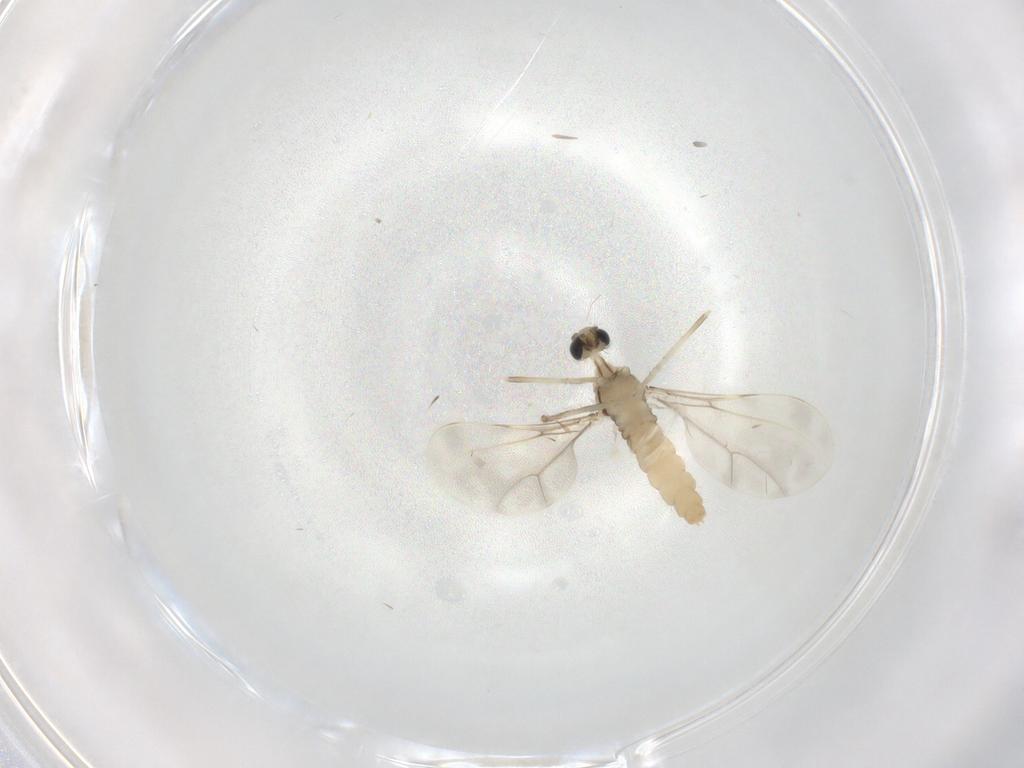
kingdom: Animalia
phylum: Arthropoda
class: Insecta
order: Diptera
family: Cecidomyiidae
